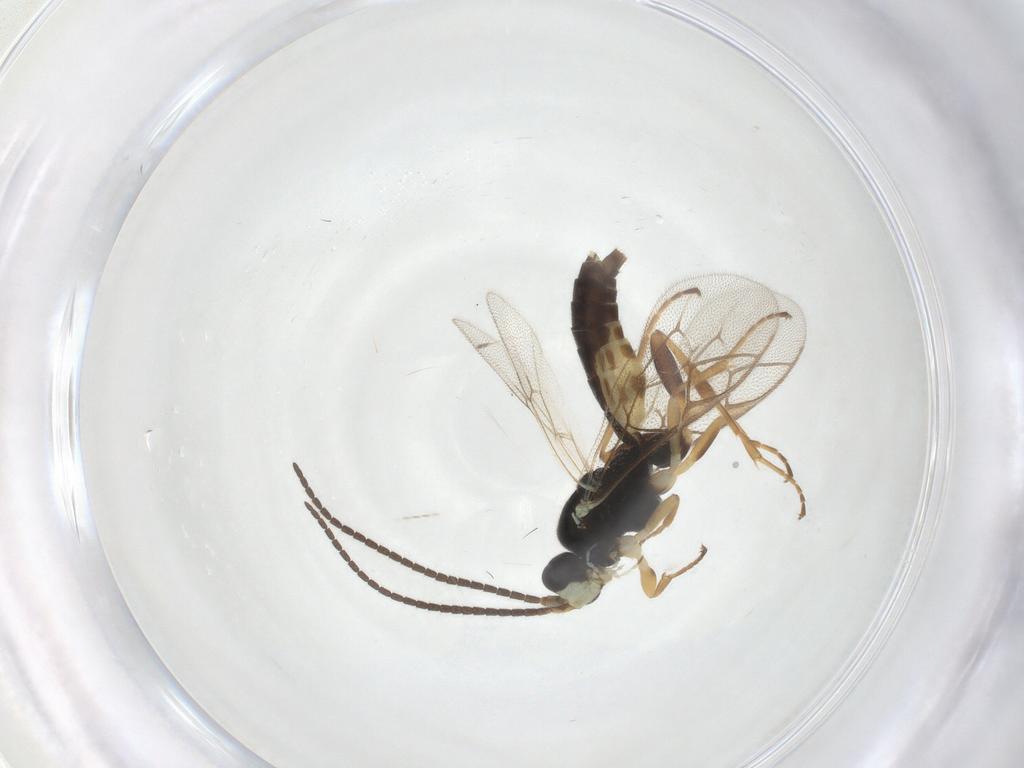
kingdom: Animalia
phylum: Arthropoda
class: Insecta
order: Hymenoptera
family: Ichneumonidae
